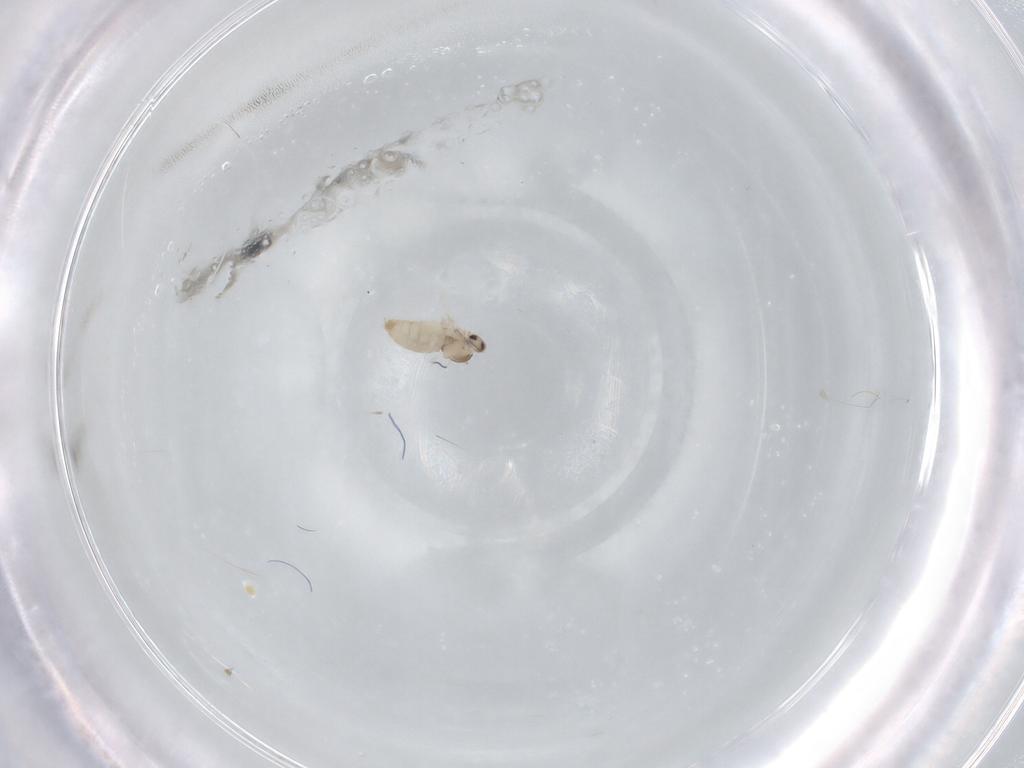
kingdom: Animalia
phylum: Arthropoda
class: Insecta
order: Diptera
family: Cecidomyiidae
